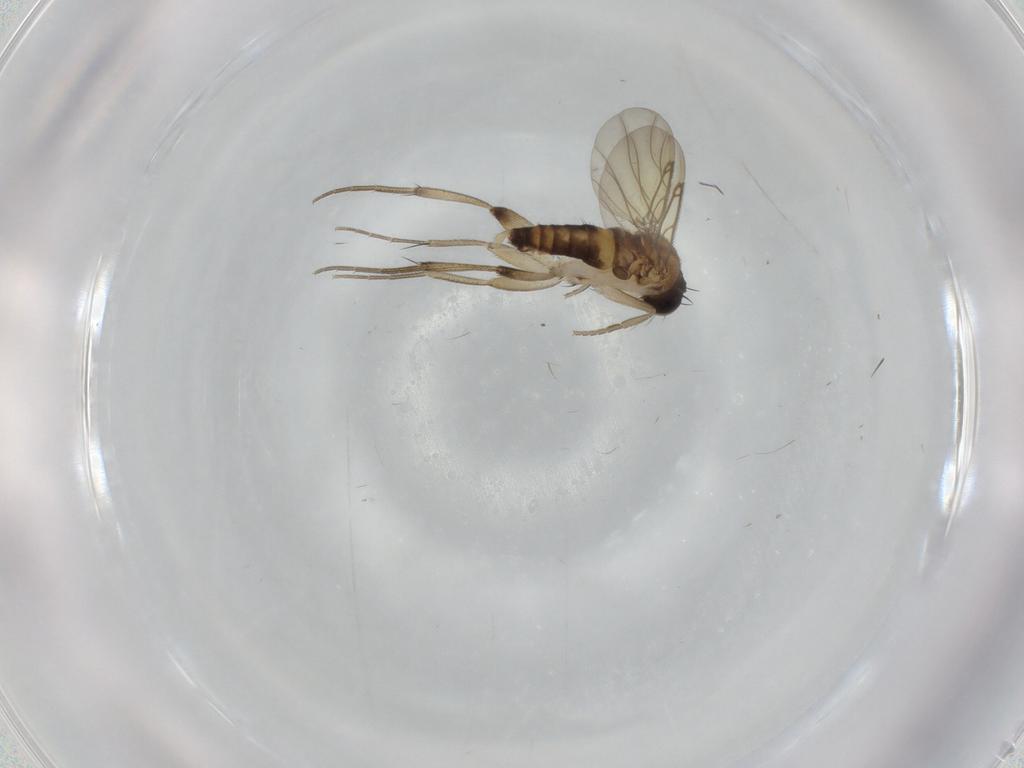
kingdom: Animalia
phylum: Arthropoda
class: Insecta
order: Diptera
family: Phoridae
